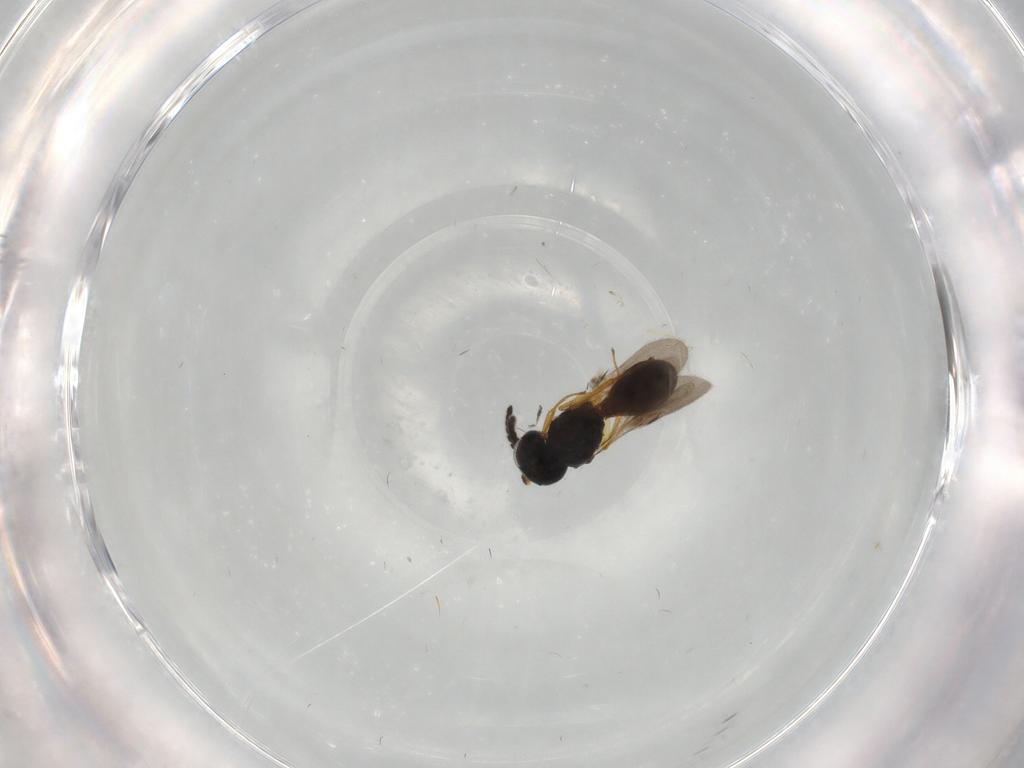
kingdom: Animalia
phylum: Arthropoda
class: Insecta
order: Hymenoptera
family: Formicidae
